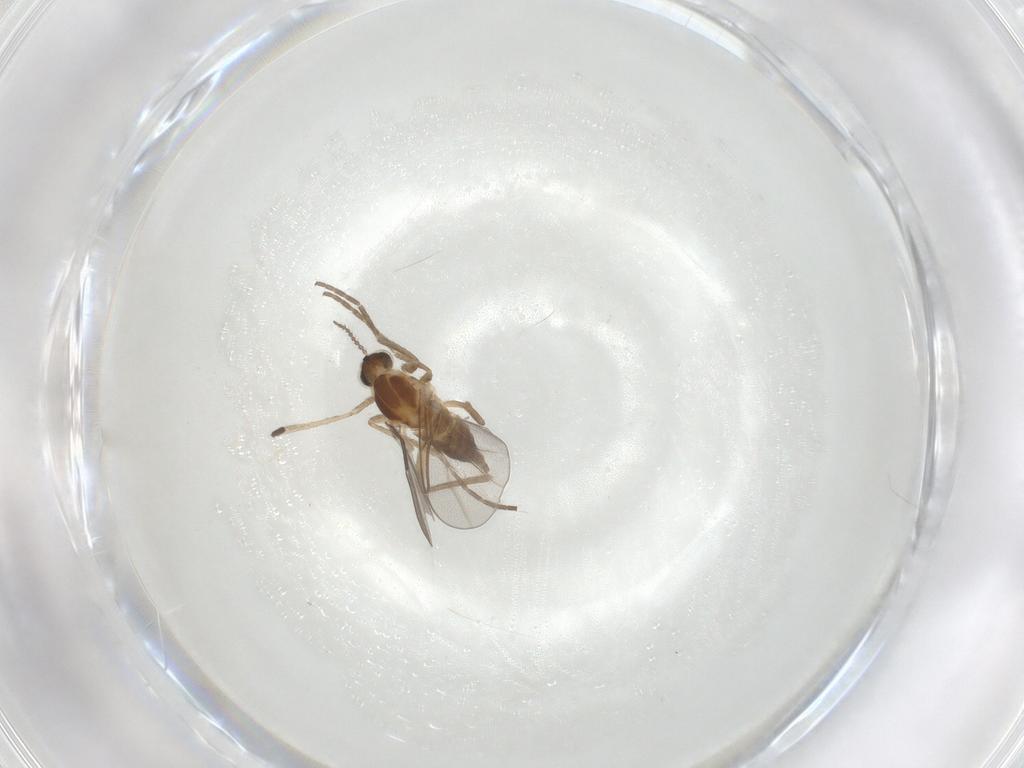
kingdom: Animalia
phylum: Arthropoda
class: Insecta
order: Diptera
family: Cecidomyiidae
